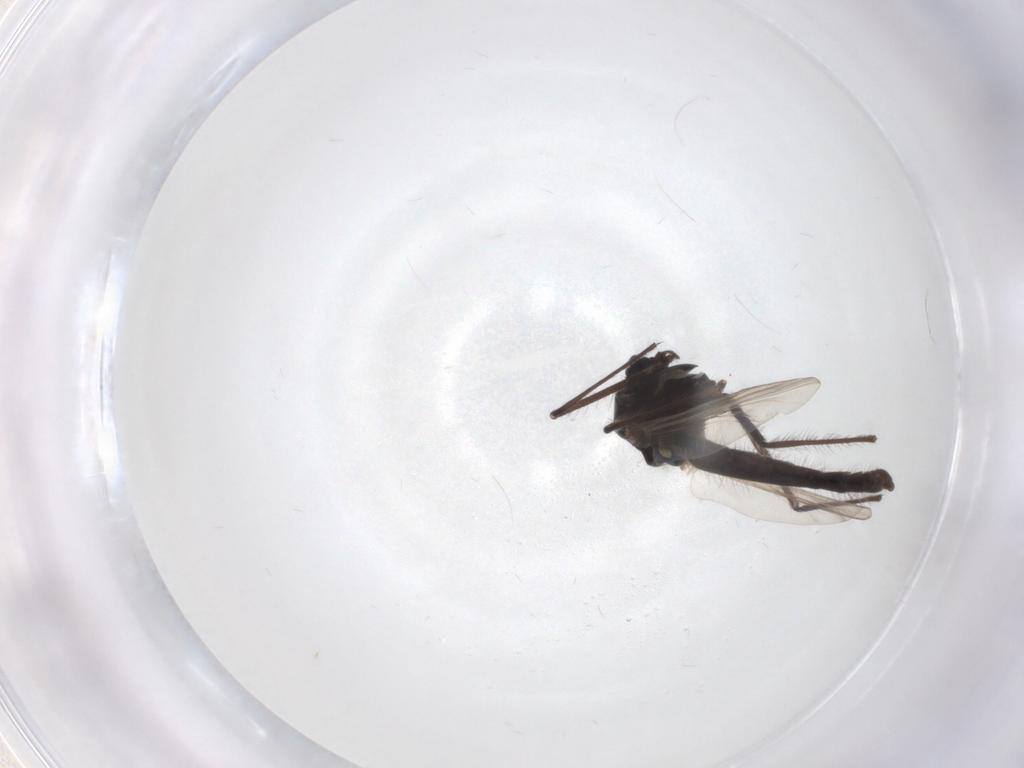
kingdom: Animalia
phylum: Arthropoda
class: Insecta
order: Diptera
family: Chironomidae
